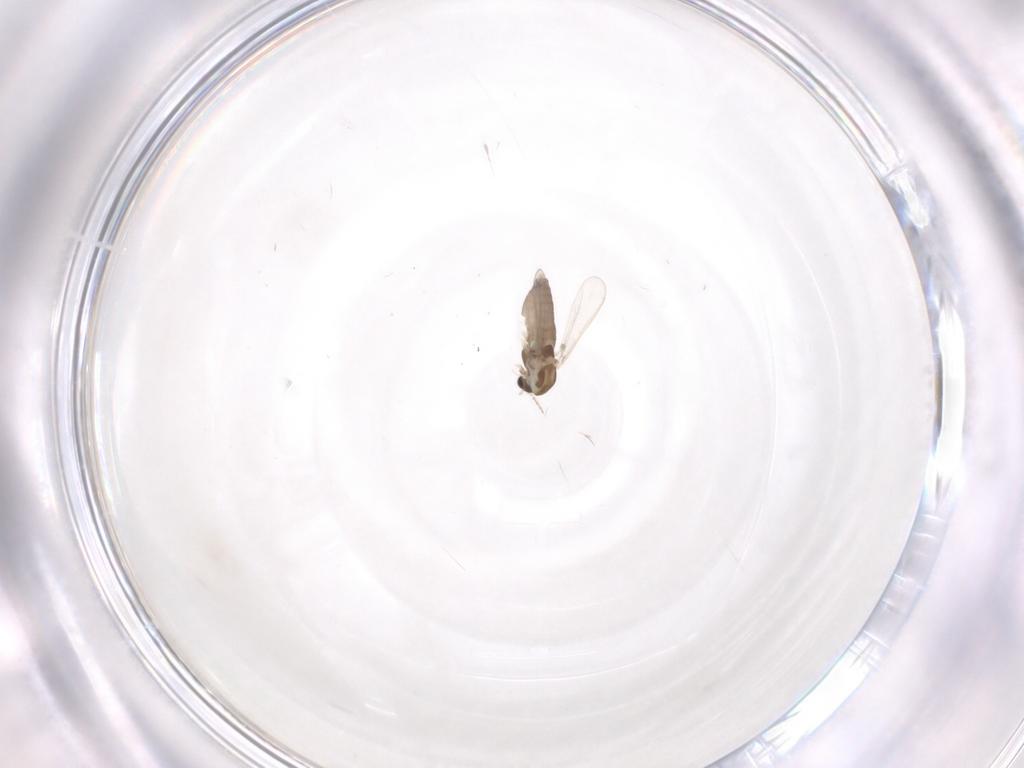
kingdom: Animalia
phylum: Arthropoda
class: Insecta
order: Diptera
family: Chironomidae
